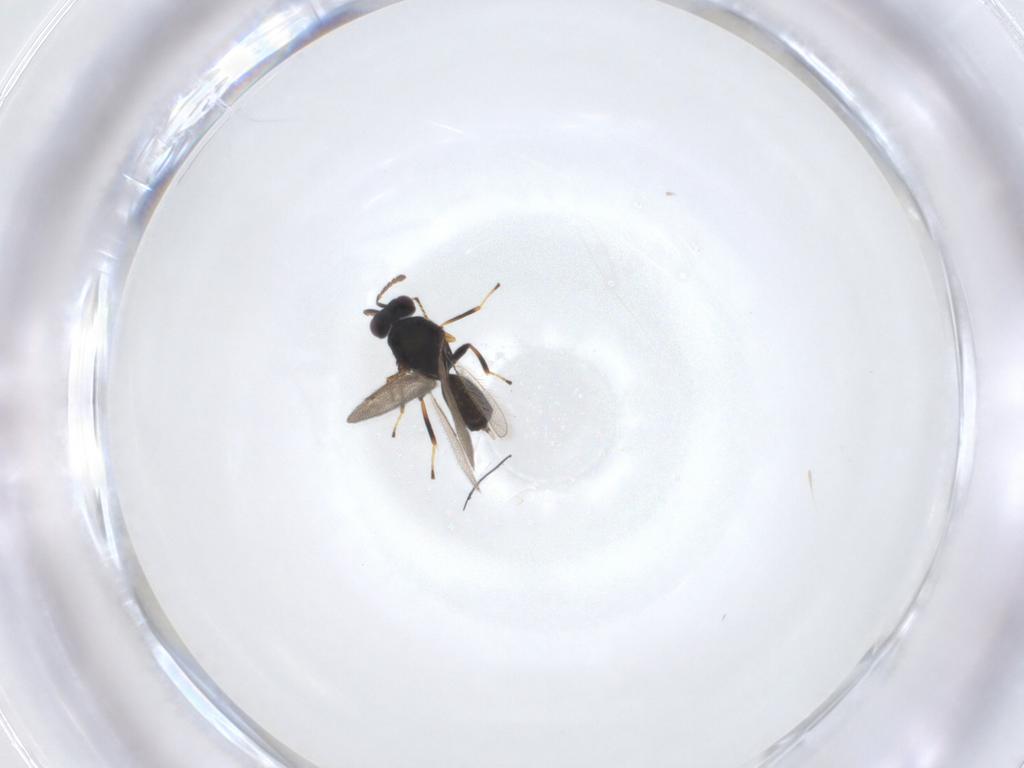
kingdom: Animalia
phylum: Arthropoda
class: Insecta
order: Hymenoptera
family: Eulophidae
